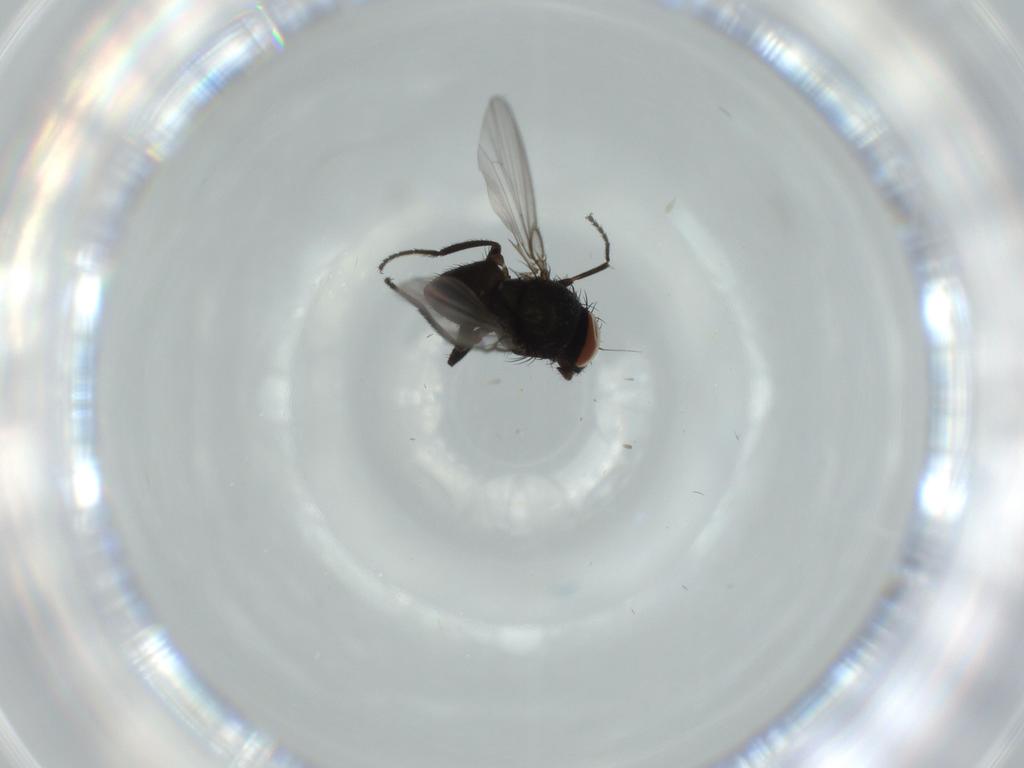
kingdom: Animalia
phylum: Arthropoda
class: Insecta
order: Diptera
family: Milichiidae
